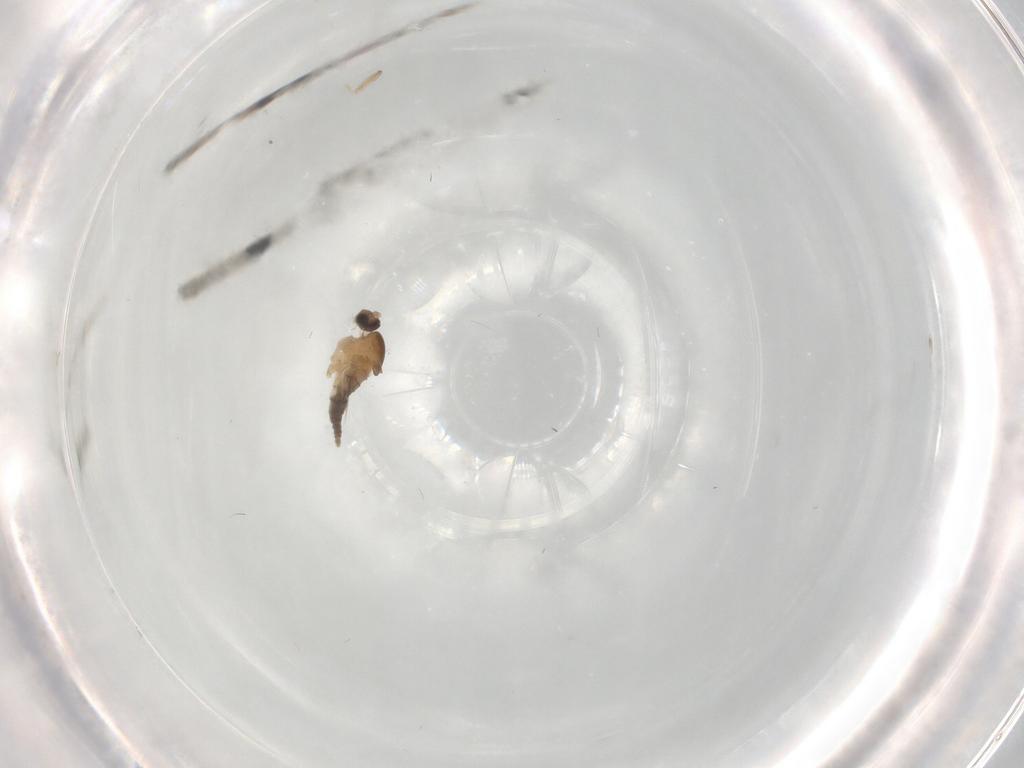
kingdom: Animalia
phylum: Arthropoda
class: Insecta
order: Diptera
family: Cecidomyiidae
